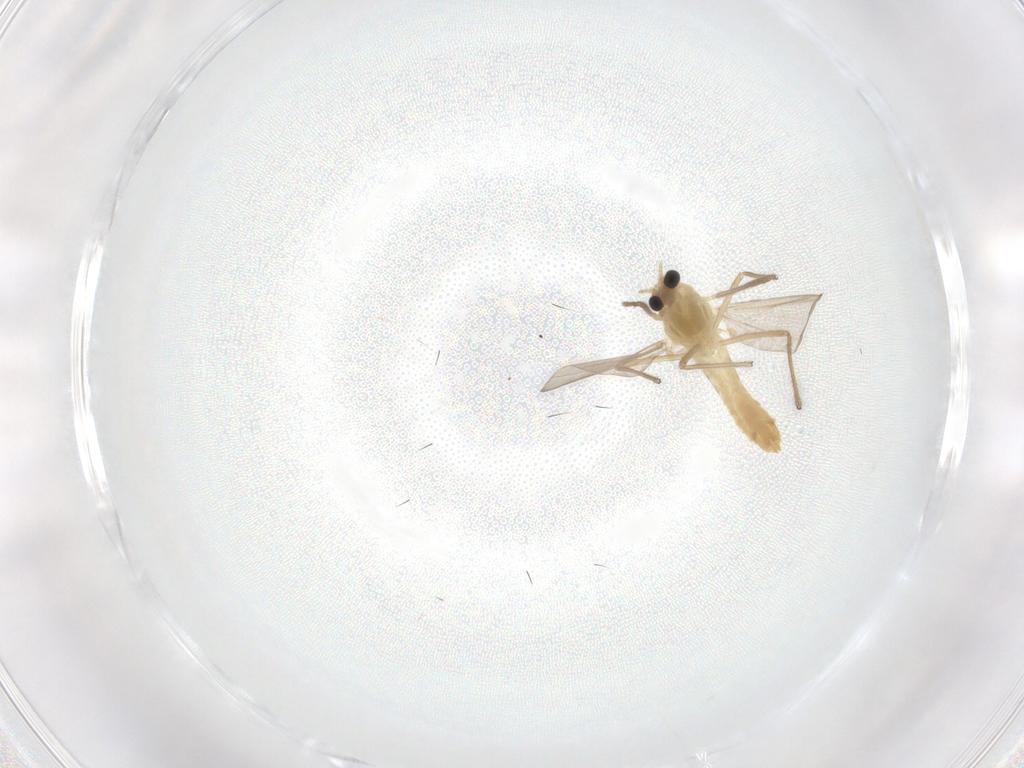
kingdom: Animalia
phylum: Arthropoda
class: Insecta
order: Diptera
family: Chironomidae
